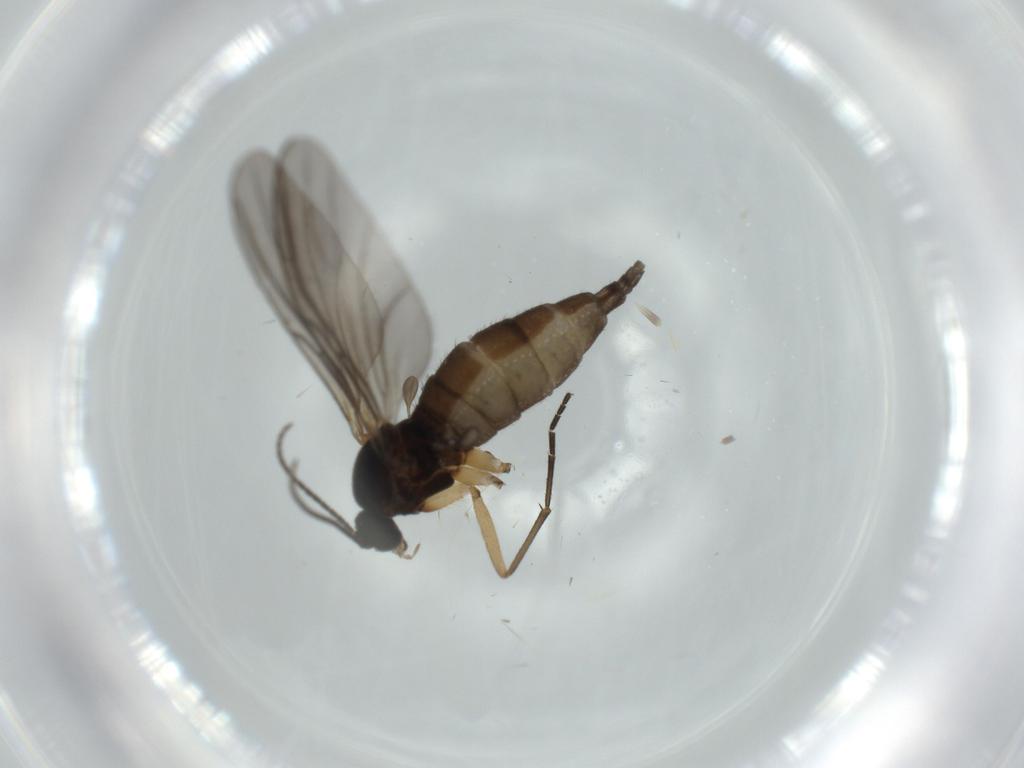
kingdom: Animalia
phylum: Arthropoda
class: Insecta
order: Diptera
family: Sciaridae
